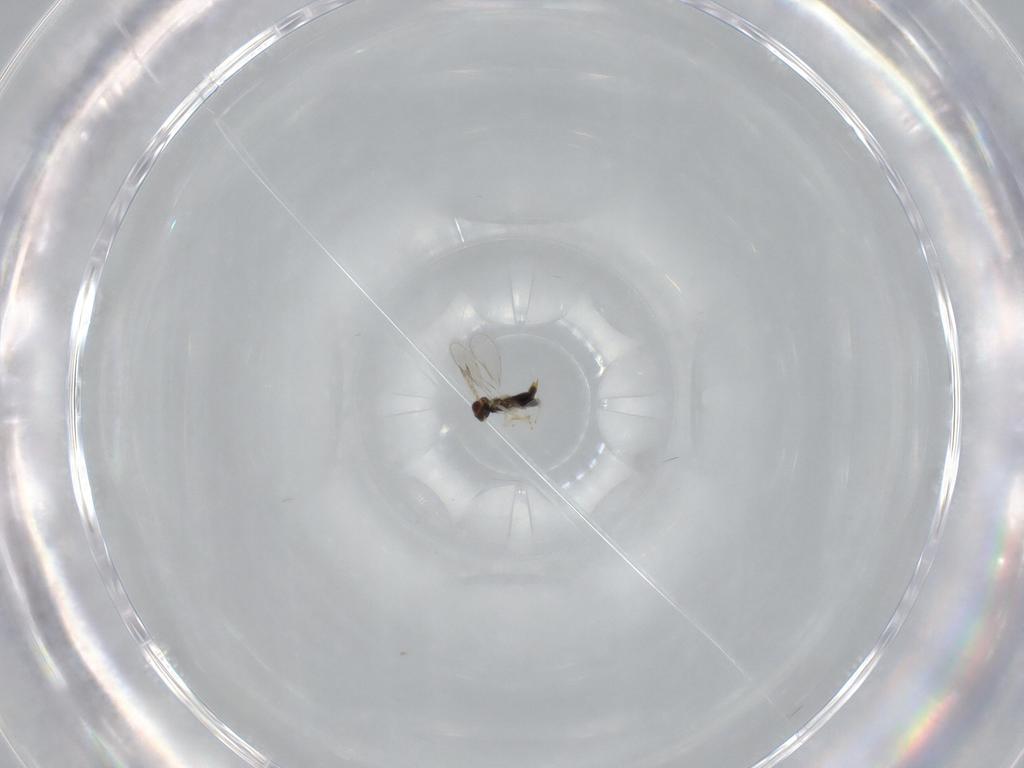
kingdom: Animalia
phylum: Arthropoda
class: Insecta
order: Hymenoptera
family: Aphelinidae
